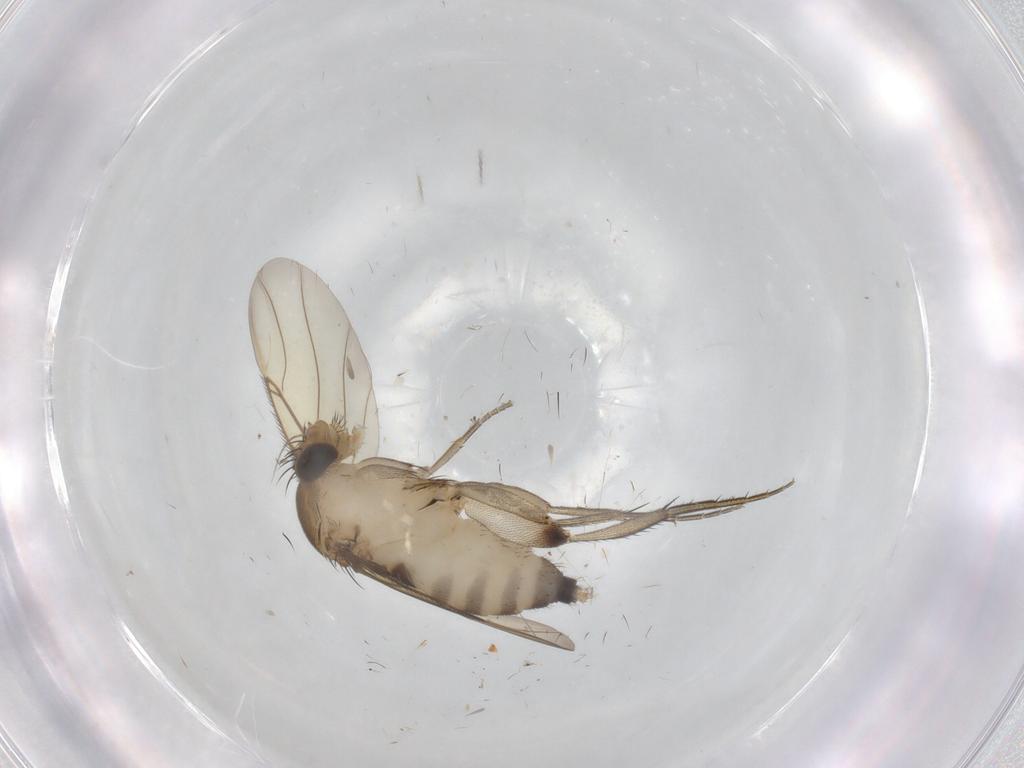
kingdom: Animalia
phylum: Arthropoda
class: Insecta
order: Diptera
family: Phoridae
